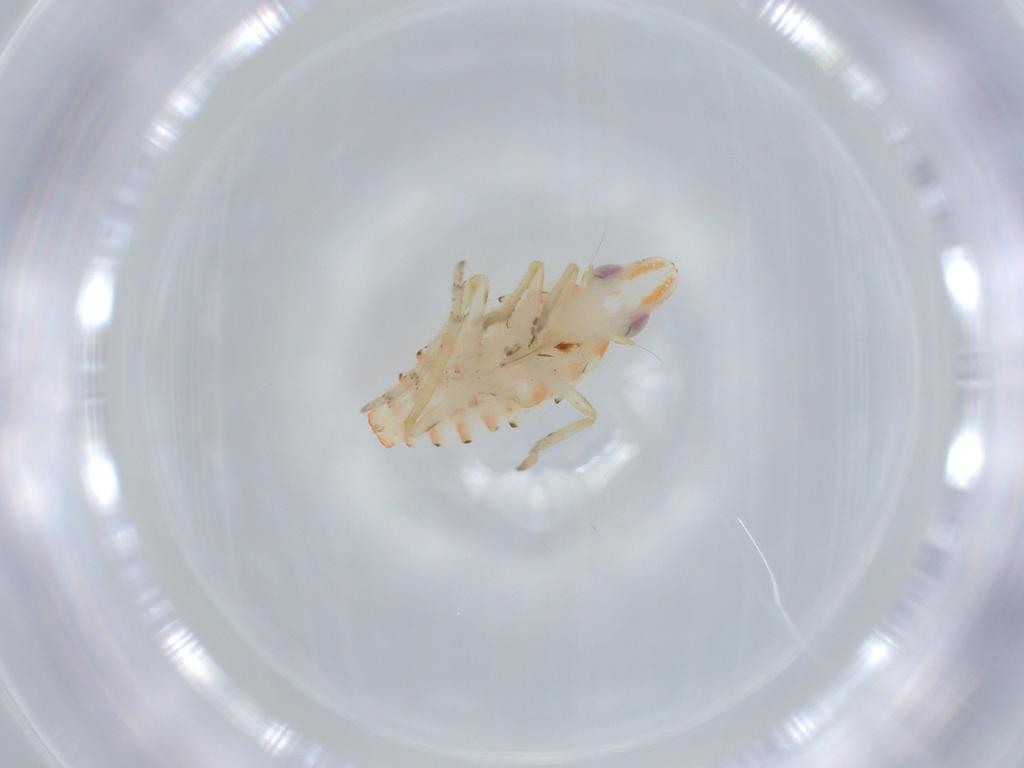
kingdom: Animalia
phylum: Arthropoda
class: Insecta
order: Hemiptera
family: Tropiduchidae
